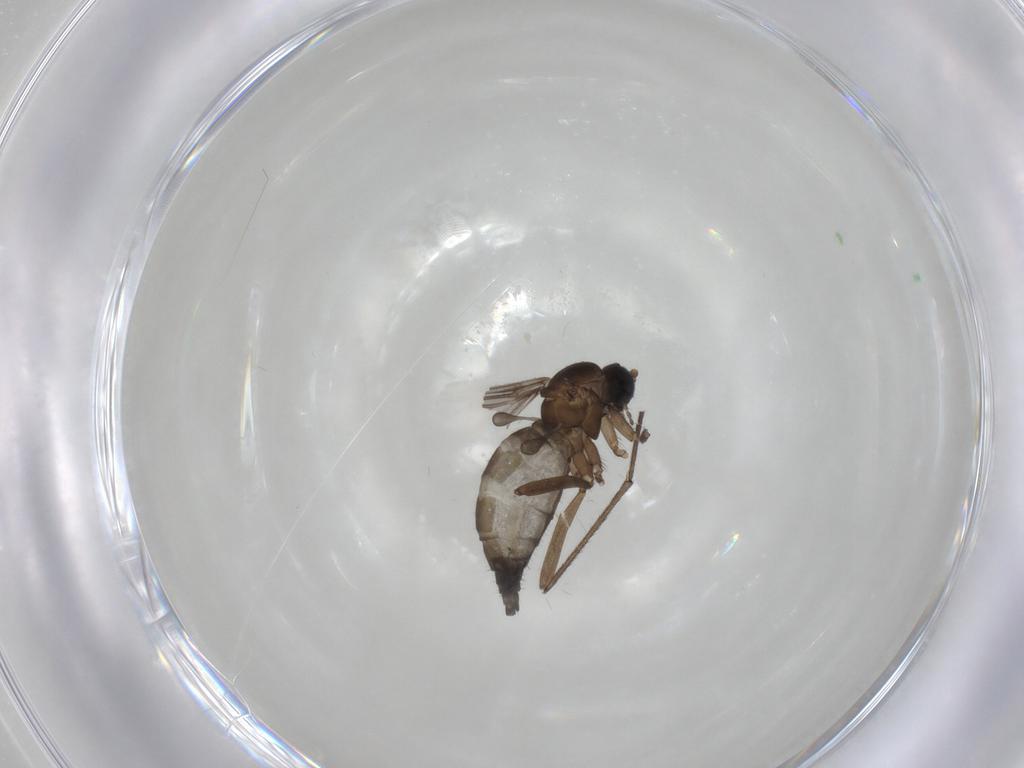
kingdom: Animalia
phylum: Arthropoda
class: Insecta
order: Diptera
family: Sciaridae
